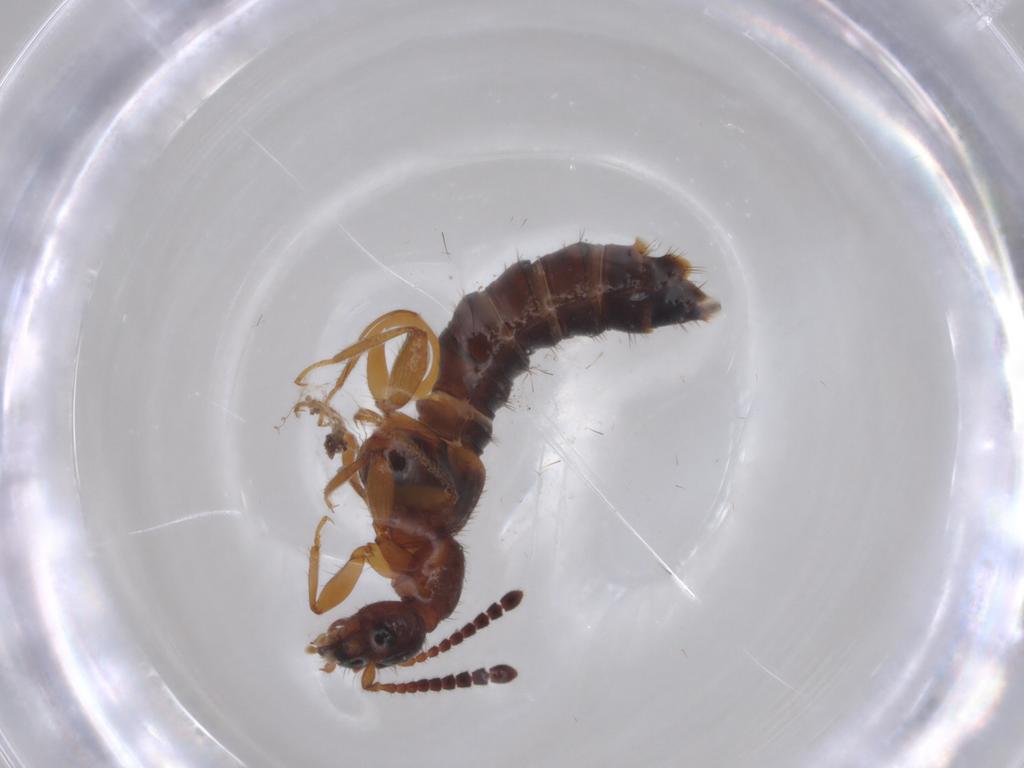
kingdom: Animalia
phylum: Arthropoda
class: Insecta
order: Coleoptera
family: Staphylinidae
